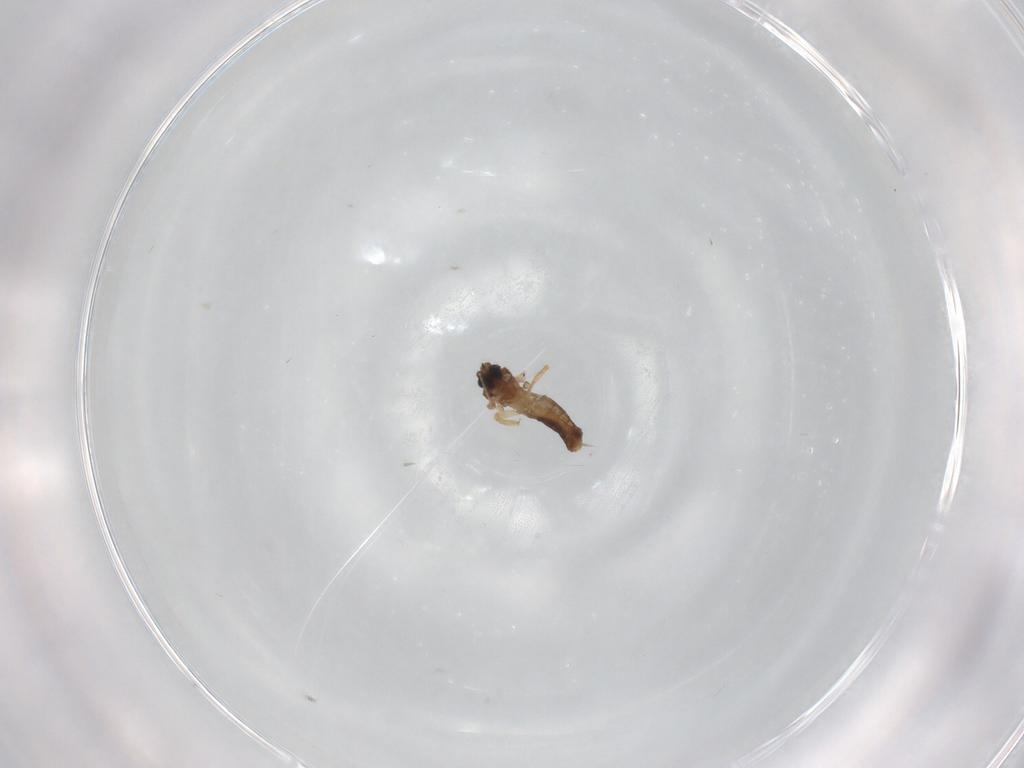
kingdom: Animalia
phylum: Arthropoda
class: Insecta
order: Diptera
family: Ceratopogonidae
